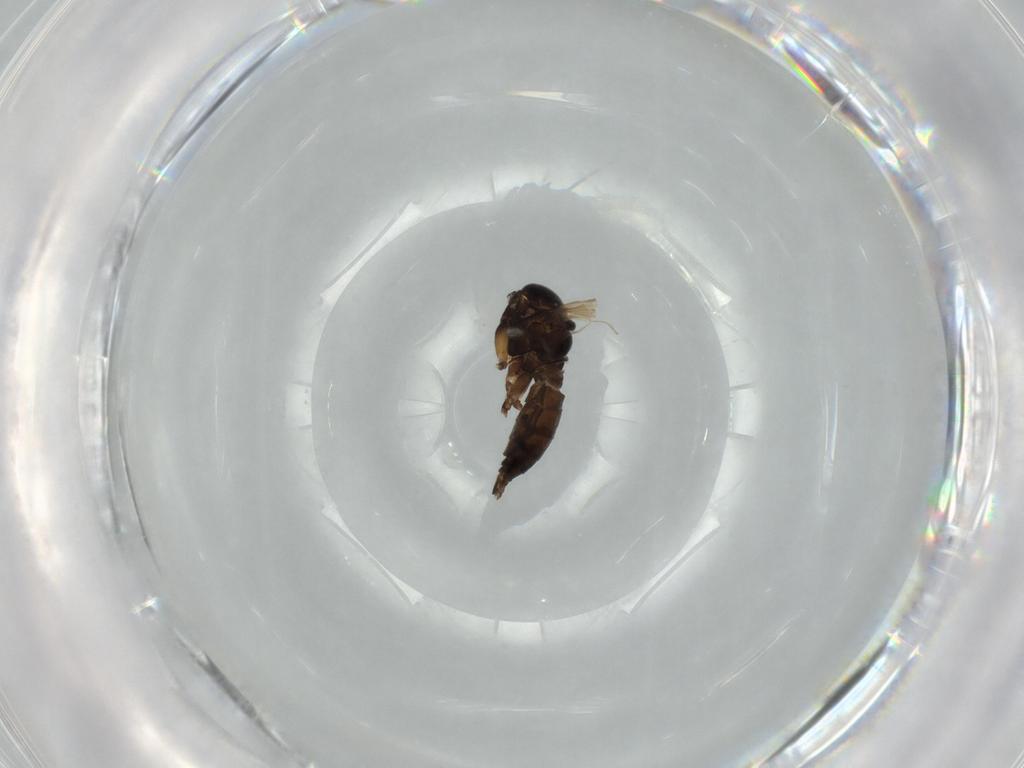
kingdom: Animalia
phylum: Arthropoda
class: Insecta
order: Diptera
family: Sciaridae
